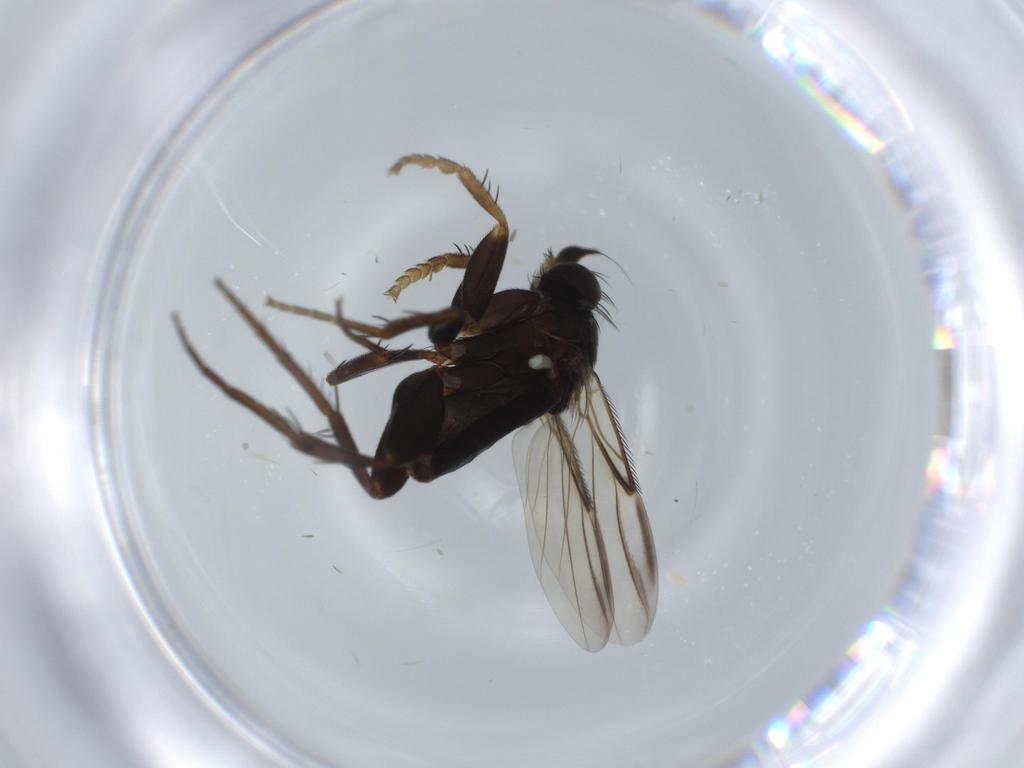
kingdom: Animalia
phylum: Arthropoda
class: Insecta
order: Diptera
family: Phoridae
